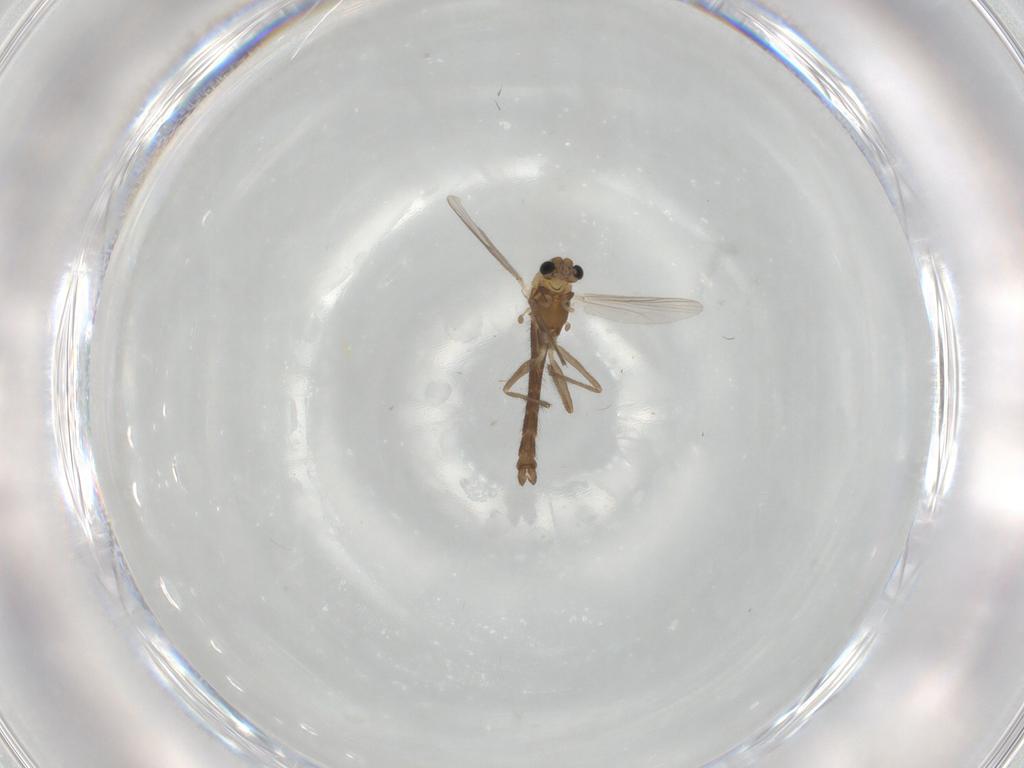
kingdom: Animalia
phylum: Arthropoda
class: Insecta
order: Diptera
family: Chironomidae
